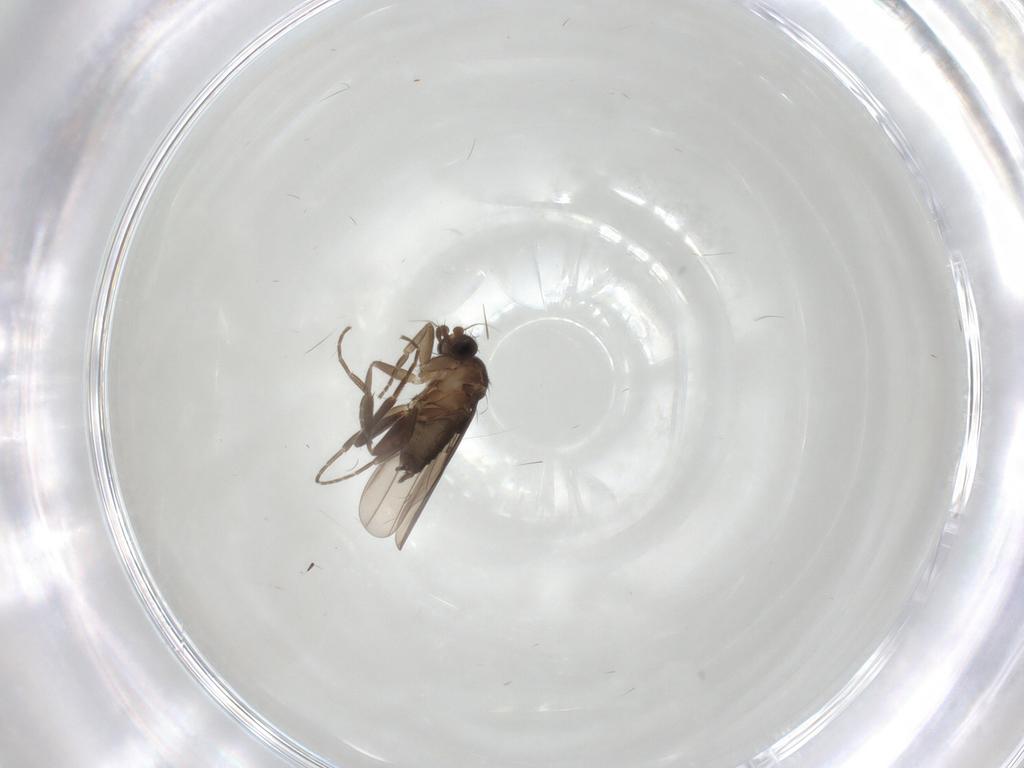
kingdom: Animalia
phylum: Arthropoda
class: Insecta
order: Diptera
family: Phoridae
